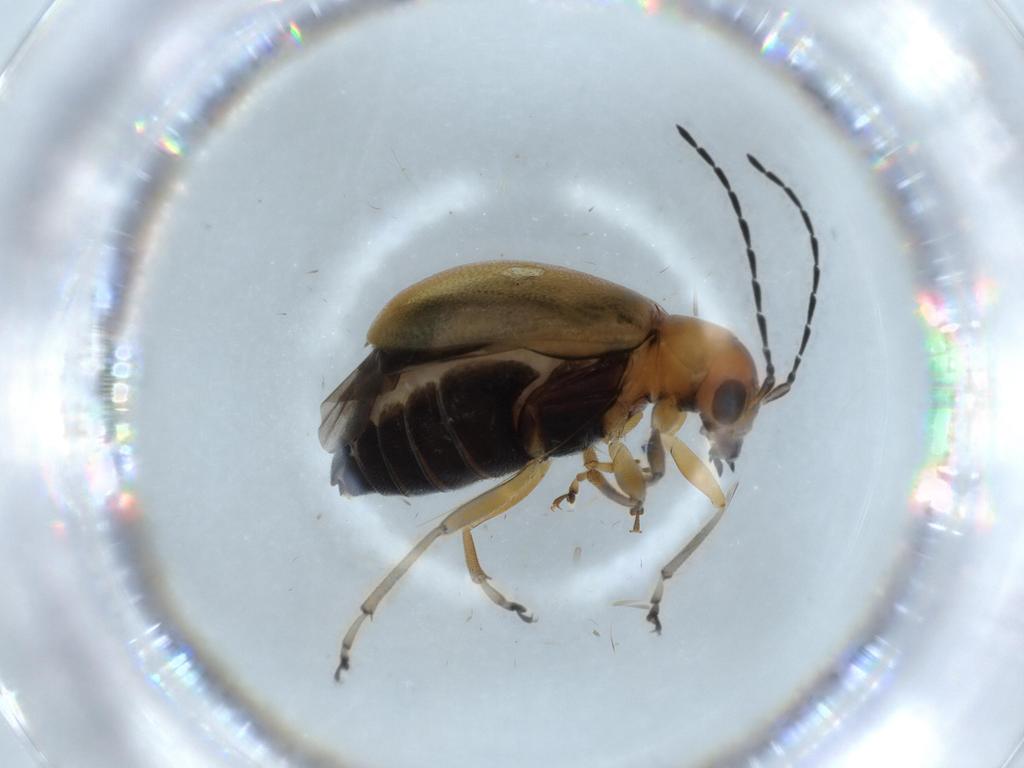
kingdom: Animalia
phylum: Arthropoda
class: Insecta
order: Coleoptera
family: Chrysomelidae
